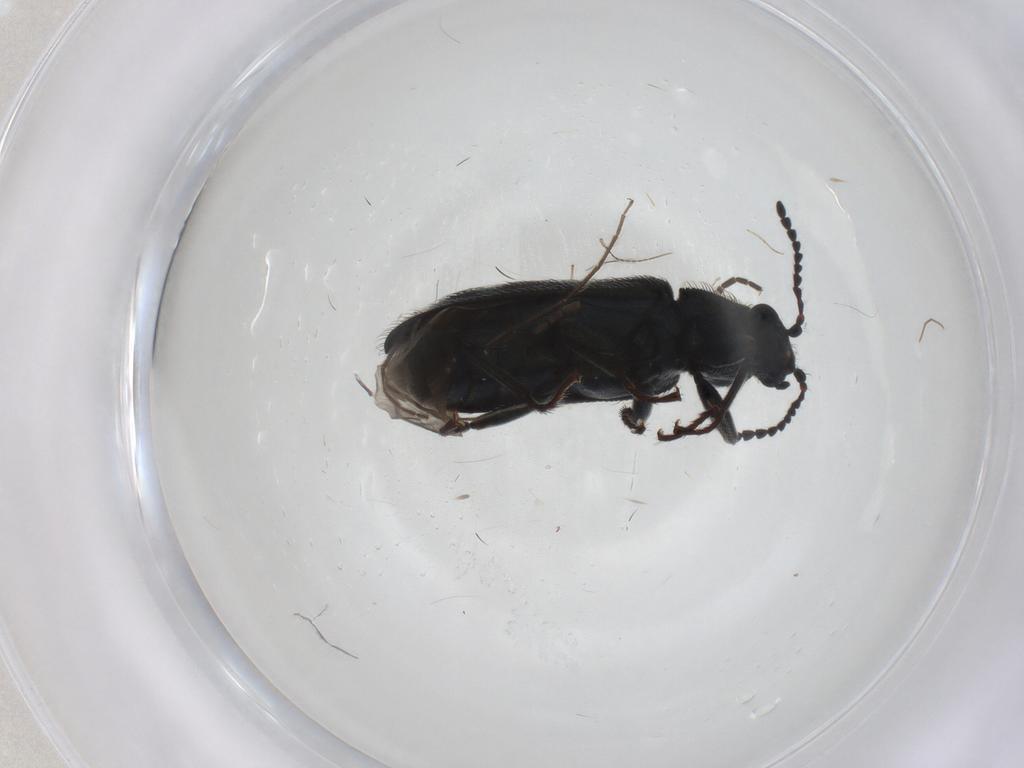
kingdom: Animalia
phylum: Arthropoda
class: Insecta
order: Coleoptera
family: Melyridae
